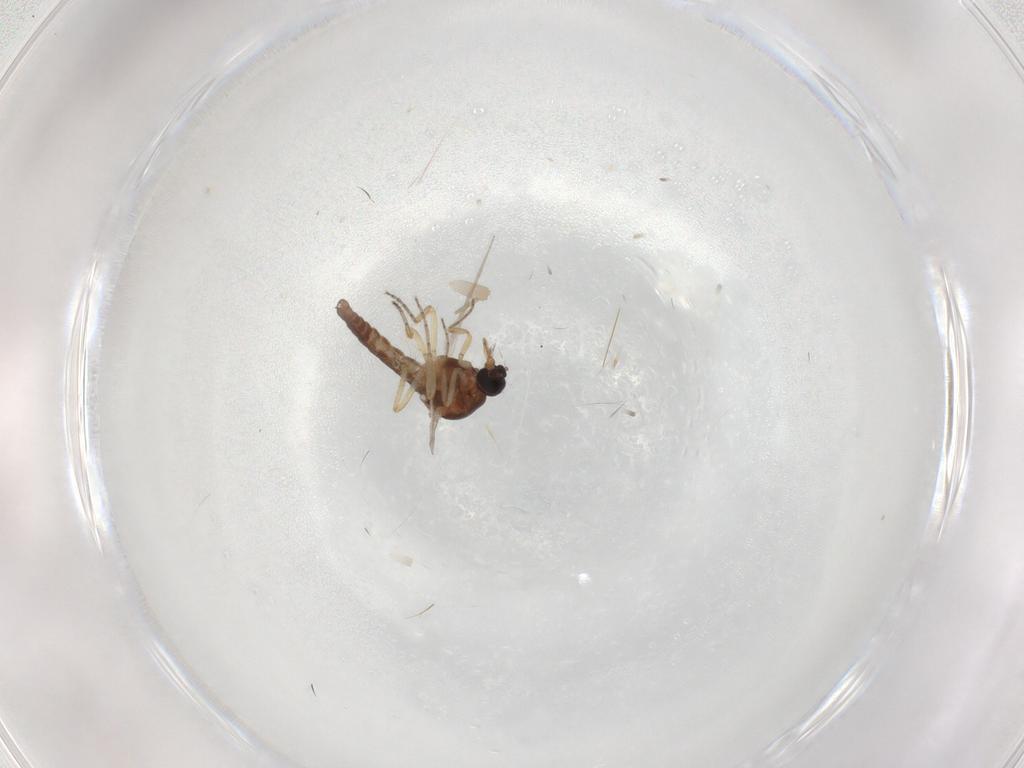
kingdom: Animalia
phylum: Arthropoda
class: Insecta
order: Diptera
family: Ceratopogonidae
